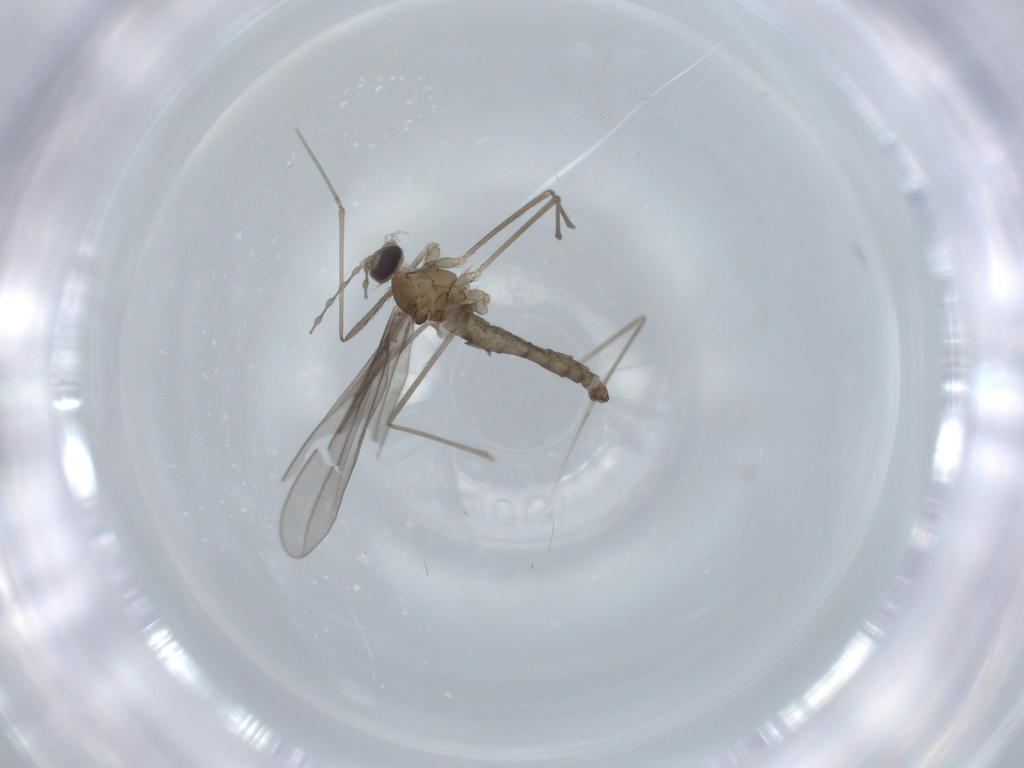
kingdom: Animalia
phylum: Arthropoda
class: Insecta
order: Diptera
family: Cecidomyiidae
